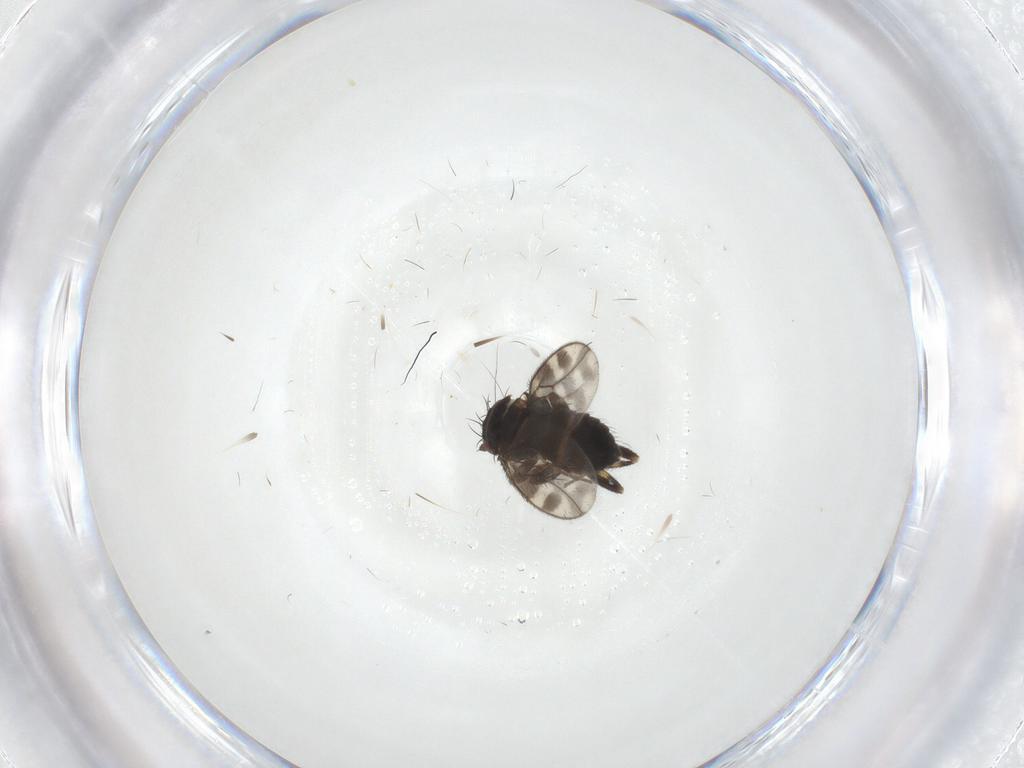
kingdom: Animalia
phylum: Arthropoda
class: Insecta
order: Diptera
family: Sphaeroceridae
